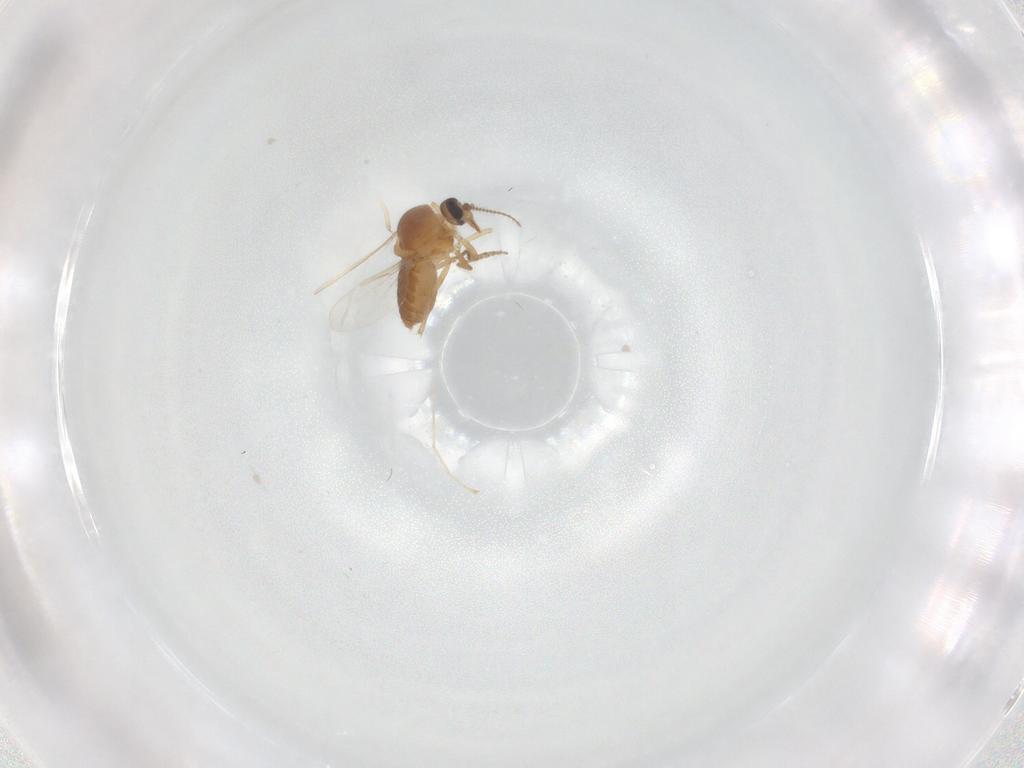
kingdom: Animalia
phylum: Arthropoda
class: Insecta
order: Diptera
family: Ceratopogonidae
